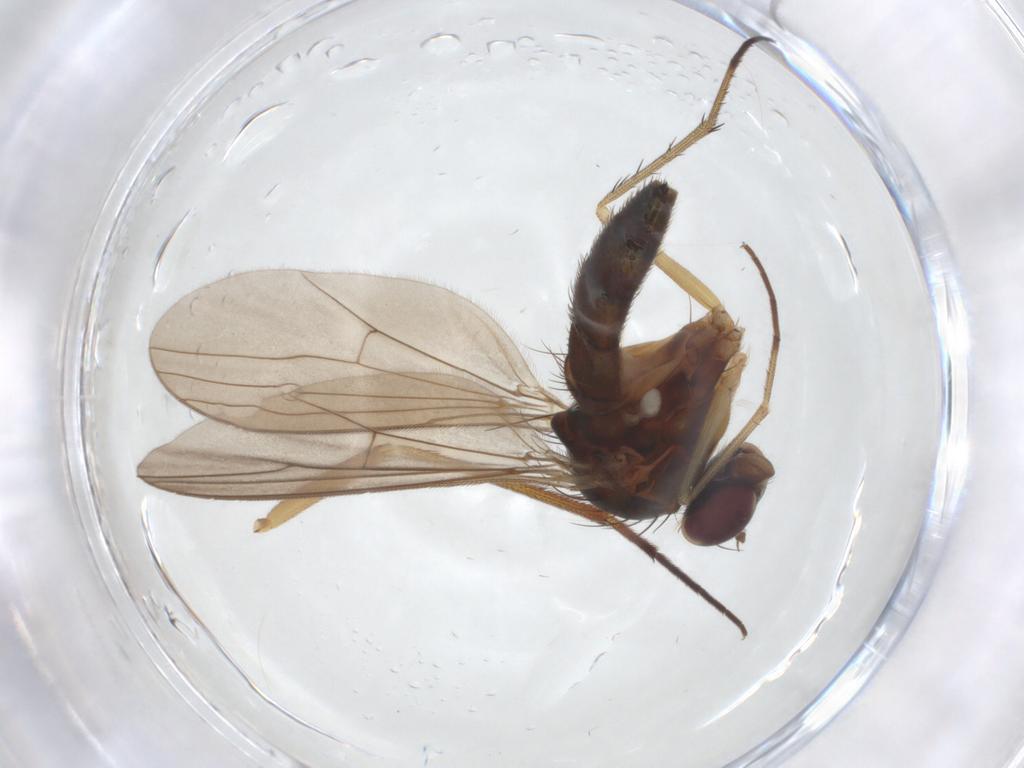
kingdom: Animalia
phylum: Arthropoda
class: Insecta
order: Diptera
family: Dolichopodidae
